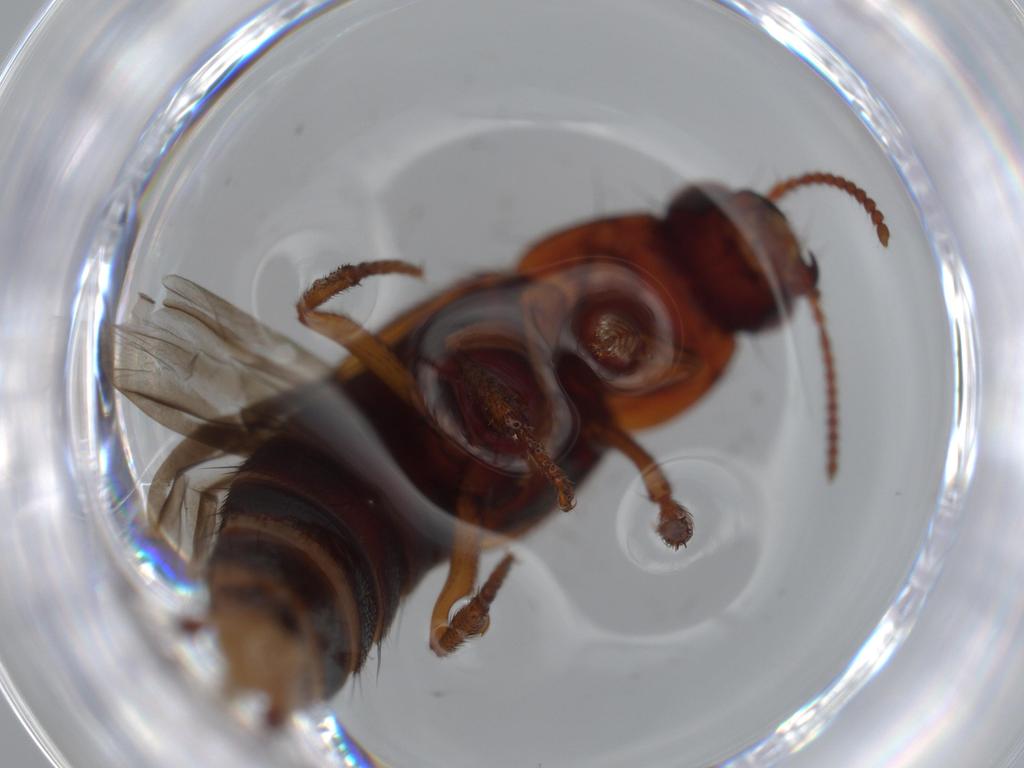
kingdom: Animalia
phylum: Arthropoda
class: Insecta
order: Coleoptera
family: Staphylinidae
